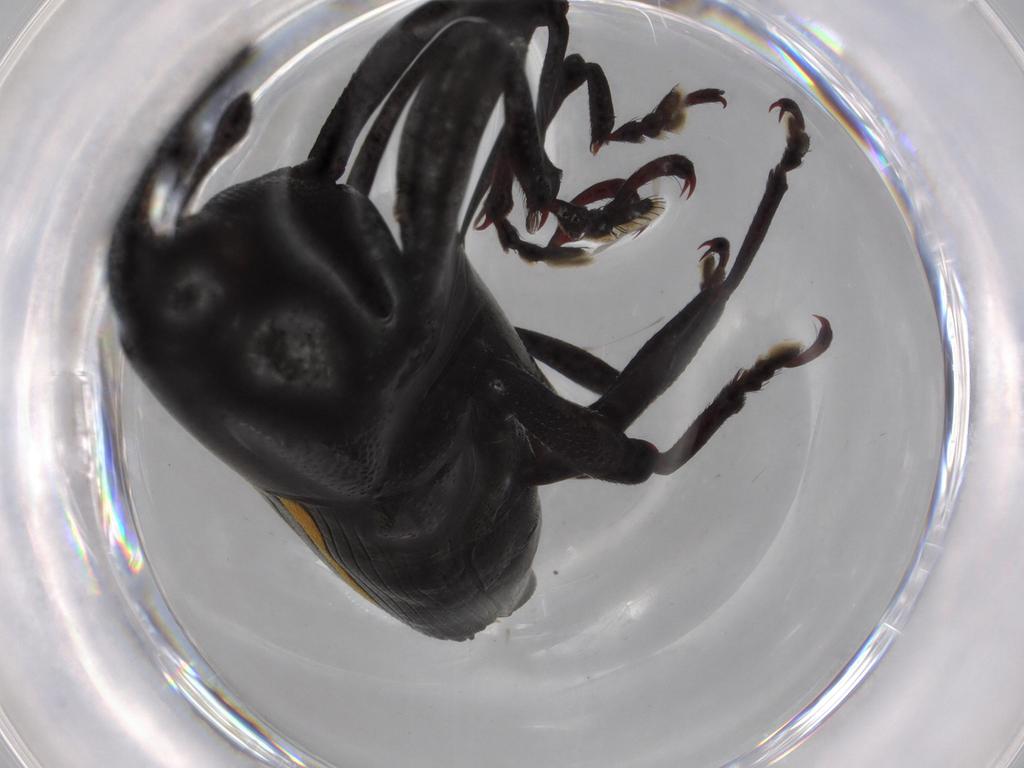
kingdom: Animalia
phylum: Arthropoda
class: Insecta
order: Coleoptera
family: Curculionidae
